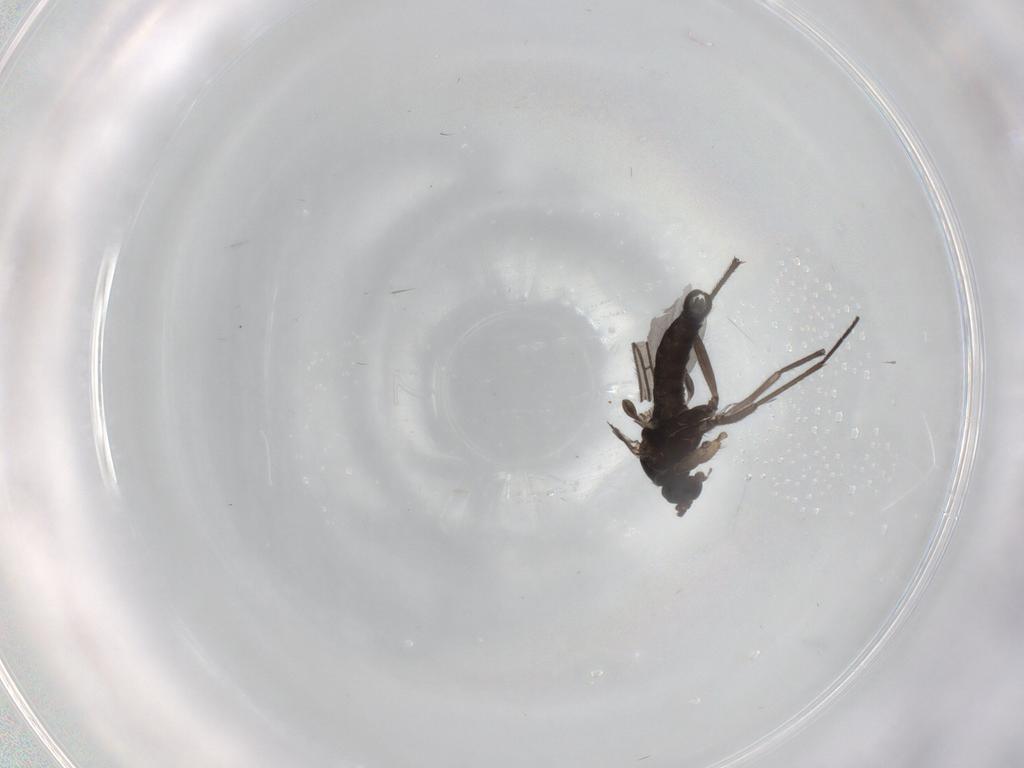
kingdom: Animalia
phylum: Arthropoda
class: Insecta
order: Diptera
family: Sciaridae
